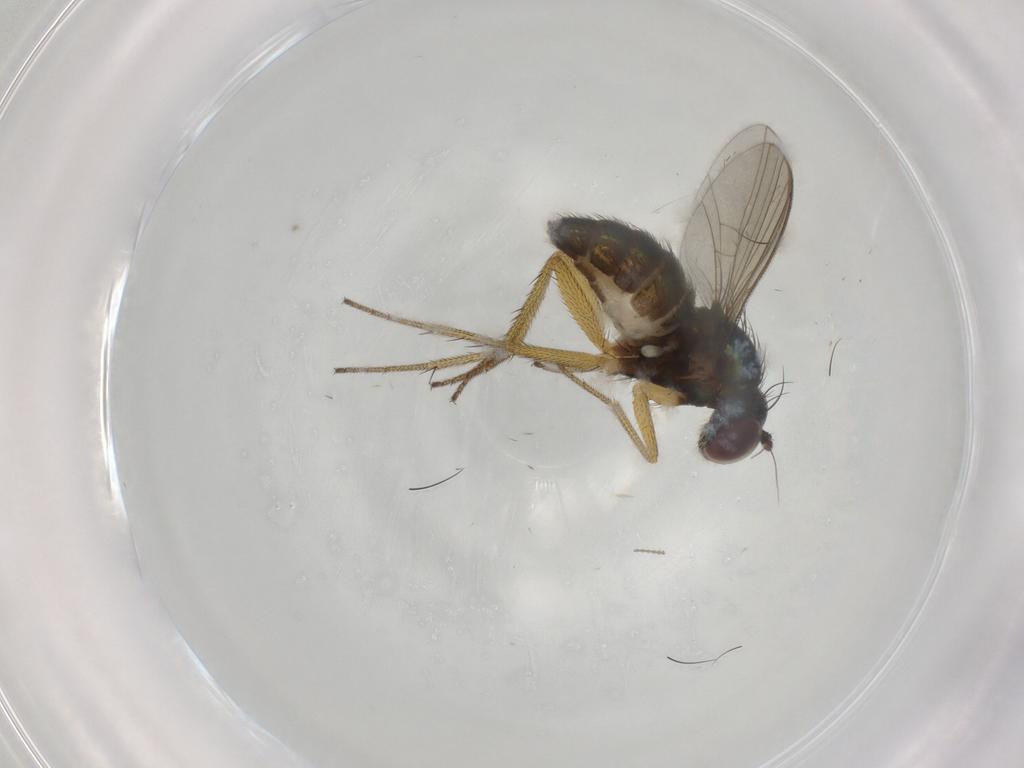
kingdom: Animalia
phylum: Arthropoda
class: Insecta
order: Diptera
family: Dolichopodidae
